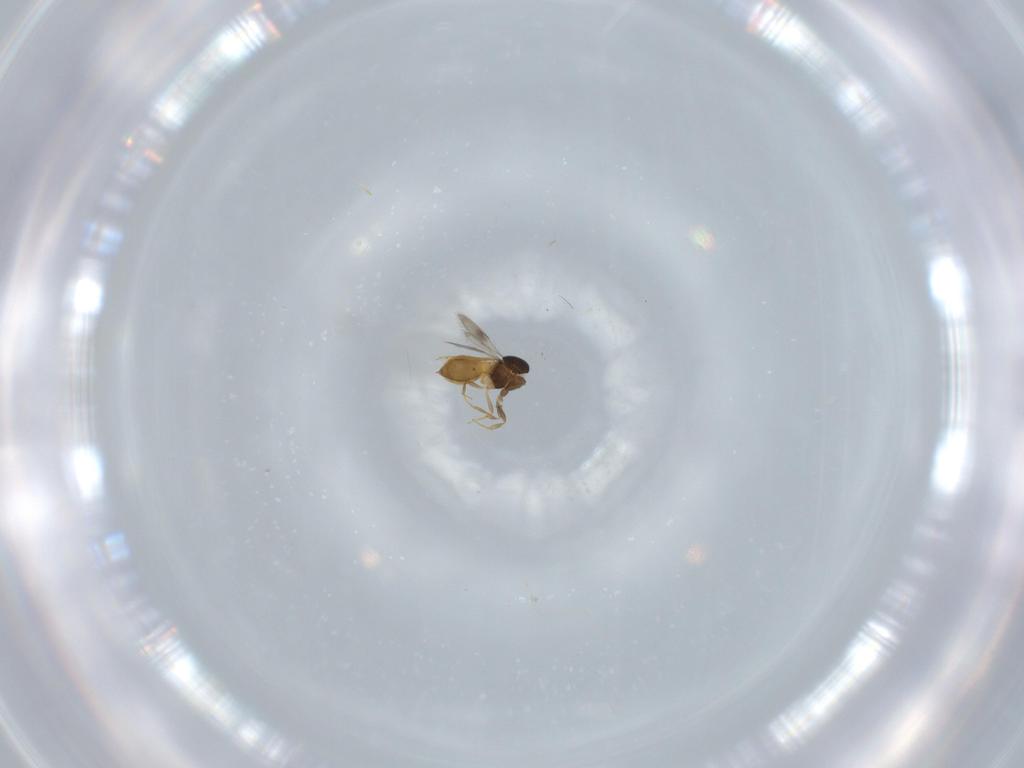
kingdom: Animalia
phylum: Arthropoda
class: Insecta
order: Hymenoptera
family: Scelionidae
